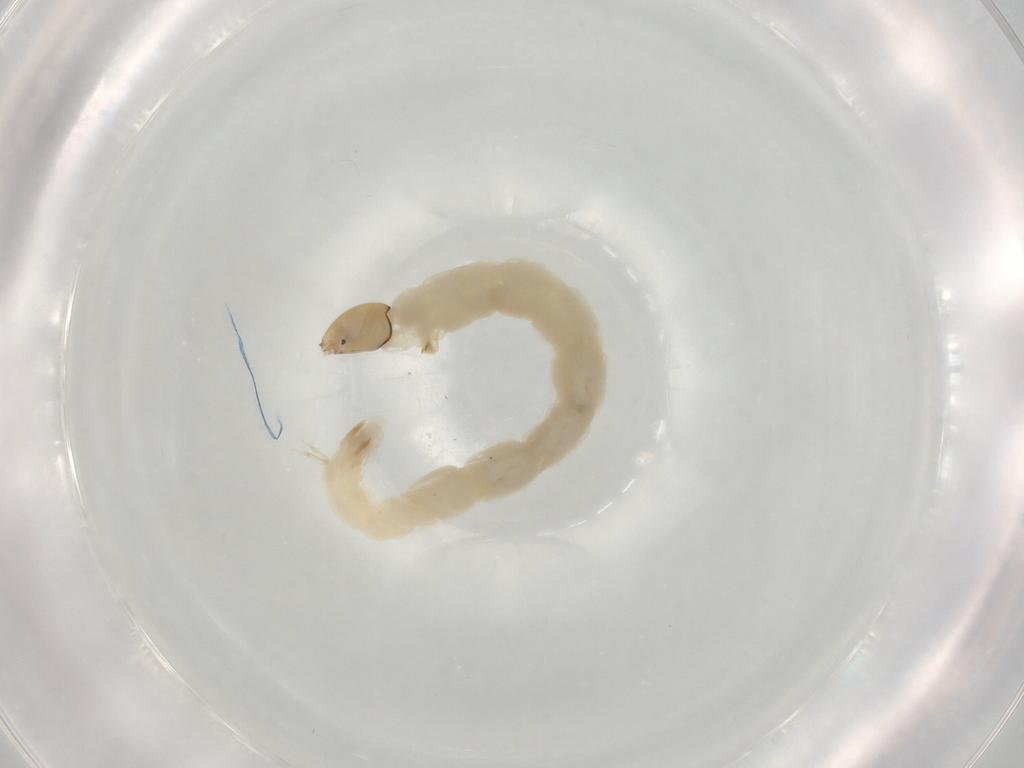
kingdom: Animalia
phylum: Arthropoda
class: Insecta
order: Diptera
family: Chironomidae
